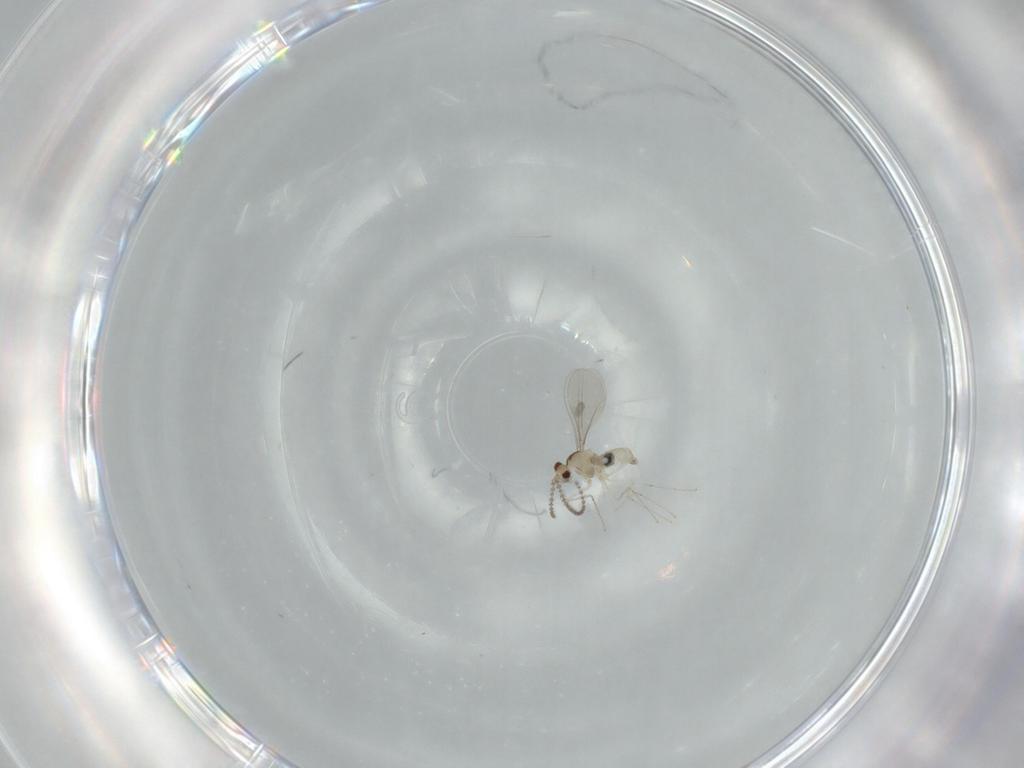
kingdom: Animalia
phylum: Arthropoda
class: Insecta
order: Diptera
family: Cecidomyiidae
